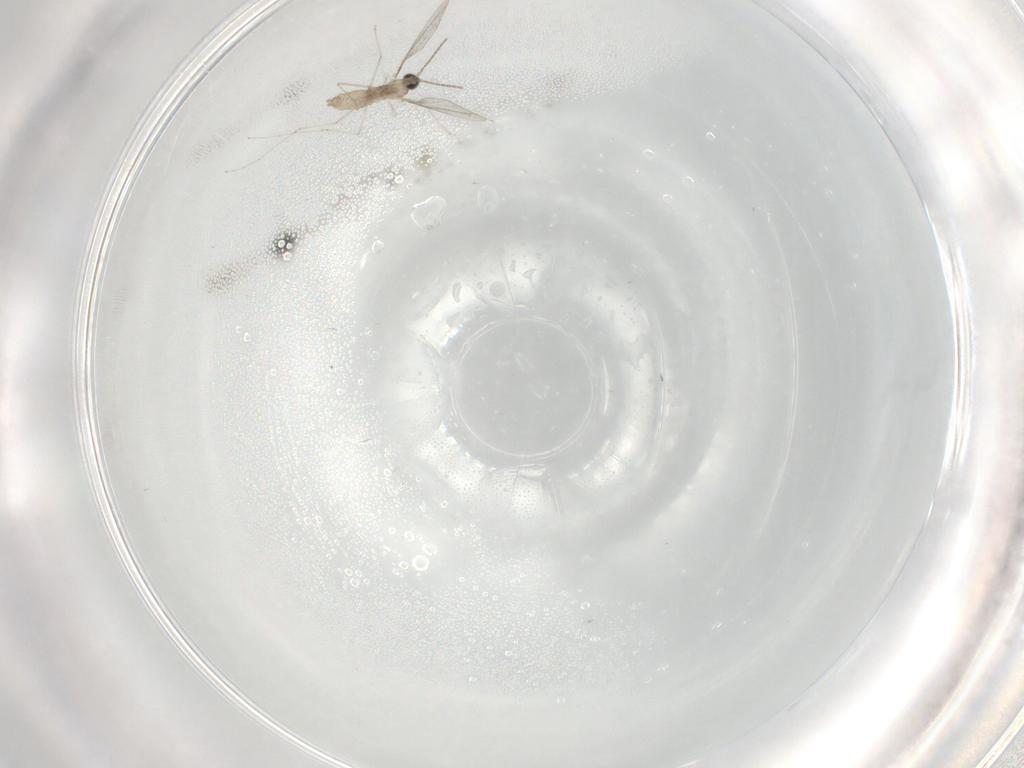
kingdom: Animalia
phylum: Arthropoda
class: Insecta
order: Diptera
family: Cecidomyiidae
